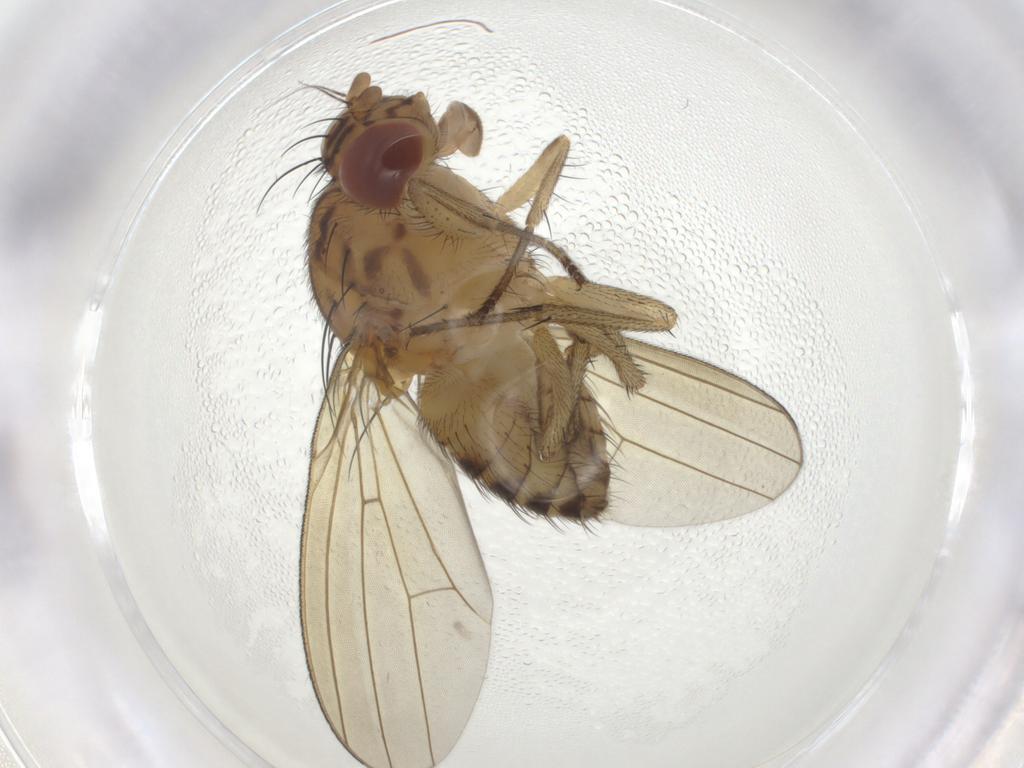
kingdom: Animalia
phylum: Arthropoda
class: Insecta
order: Diptera
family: Lauxaniidae
